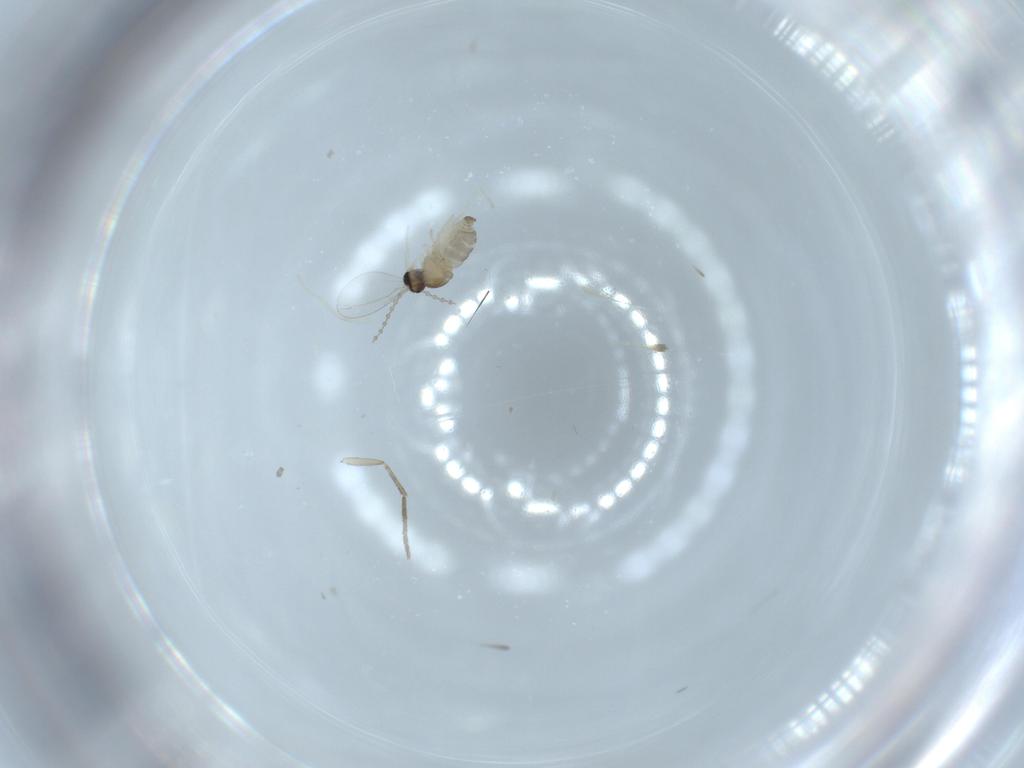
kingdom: Animalia
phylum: Arthropoda
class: Insecta
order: Diptera
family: Cecidomyiidae
